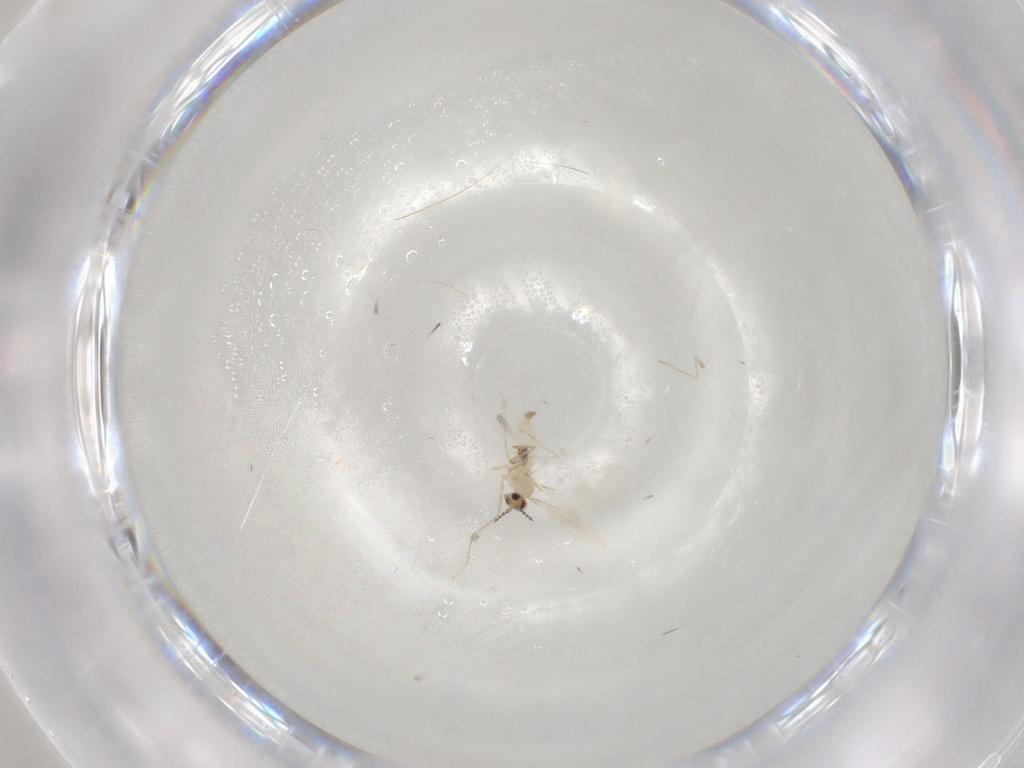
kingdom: Animalia
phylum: Arthropoda
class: Insecta
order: Diptera
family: Cecidomyiidae
